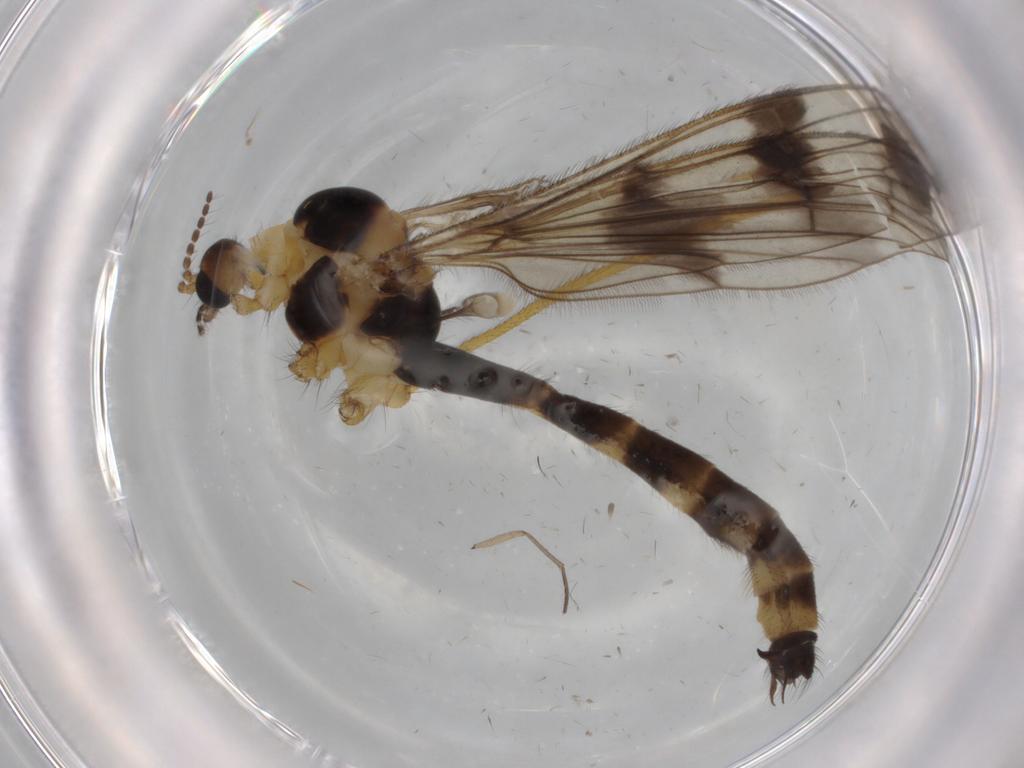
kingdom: Animalia
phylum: Arthropoda
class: Insecta
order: Diptera
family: Limoniidae
